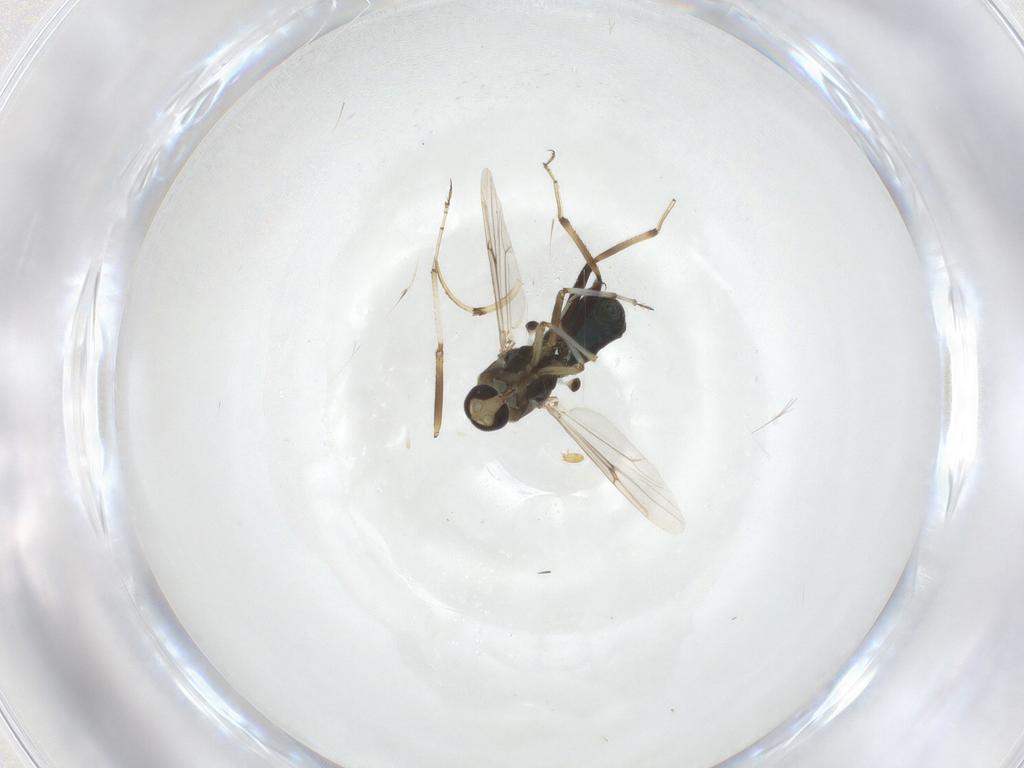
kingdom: Animalia
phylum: Arthropoda
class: Insecta
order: Diptera
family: Ceratopogonidae
